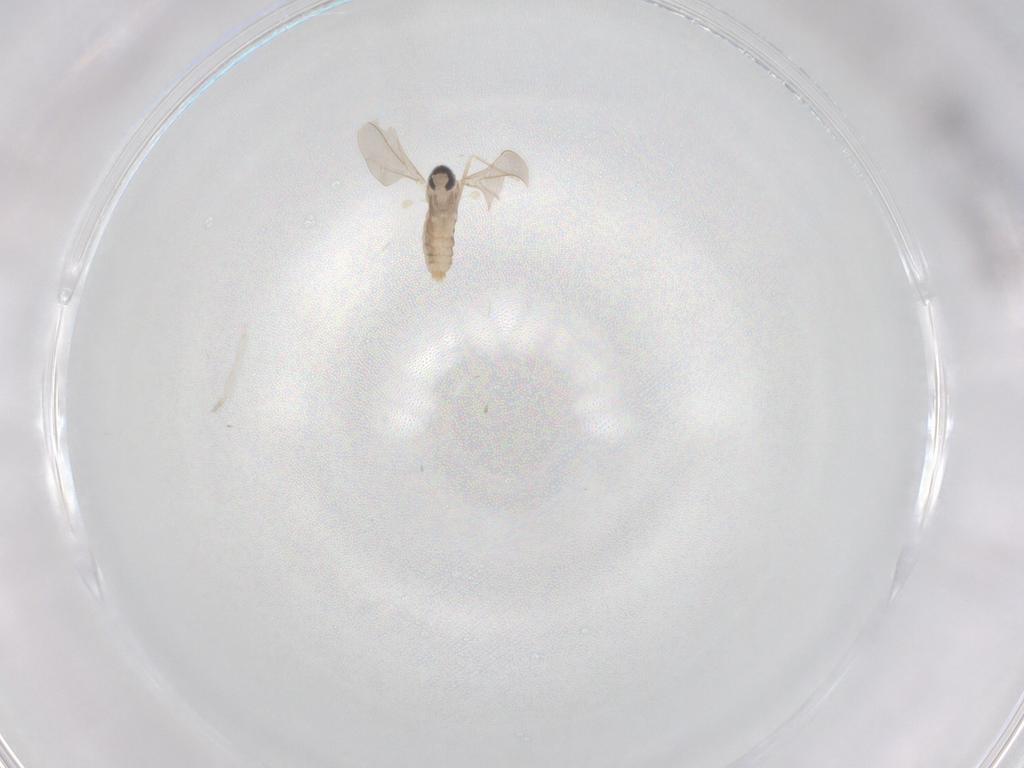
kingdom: Animalia
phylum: Arthropoda
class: Insecta
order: Diptera
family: Cecidomyiidae
